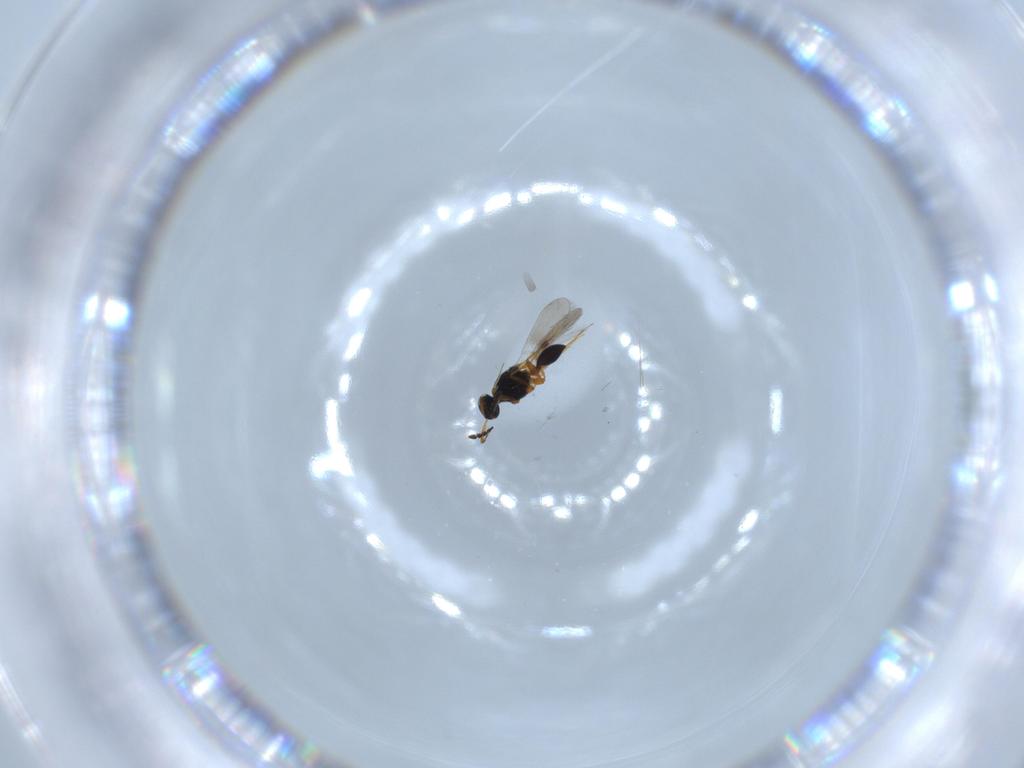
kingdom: Animalia
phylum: Arthropoda
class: Insecta
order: Hymenoptera
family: Platygastridae
